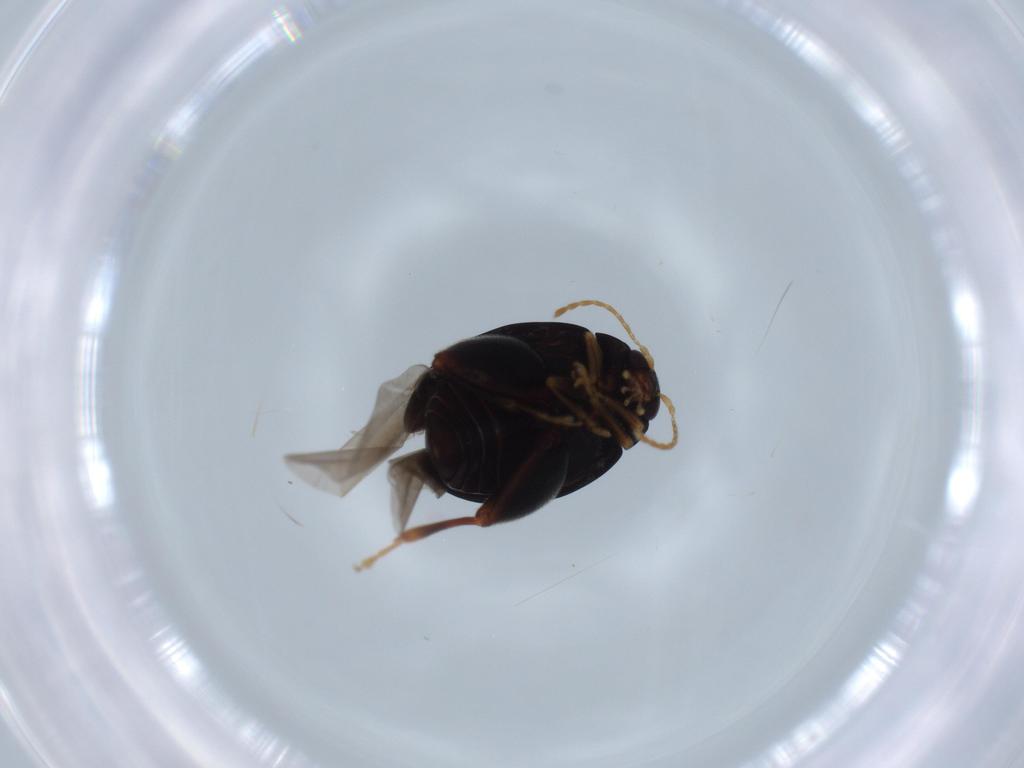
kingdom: Animalia
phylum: Arthropoda
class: Insecta
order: Coleoptera
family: Chrysomelidae
